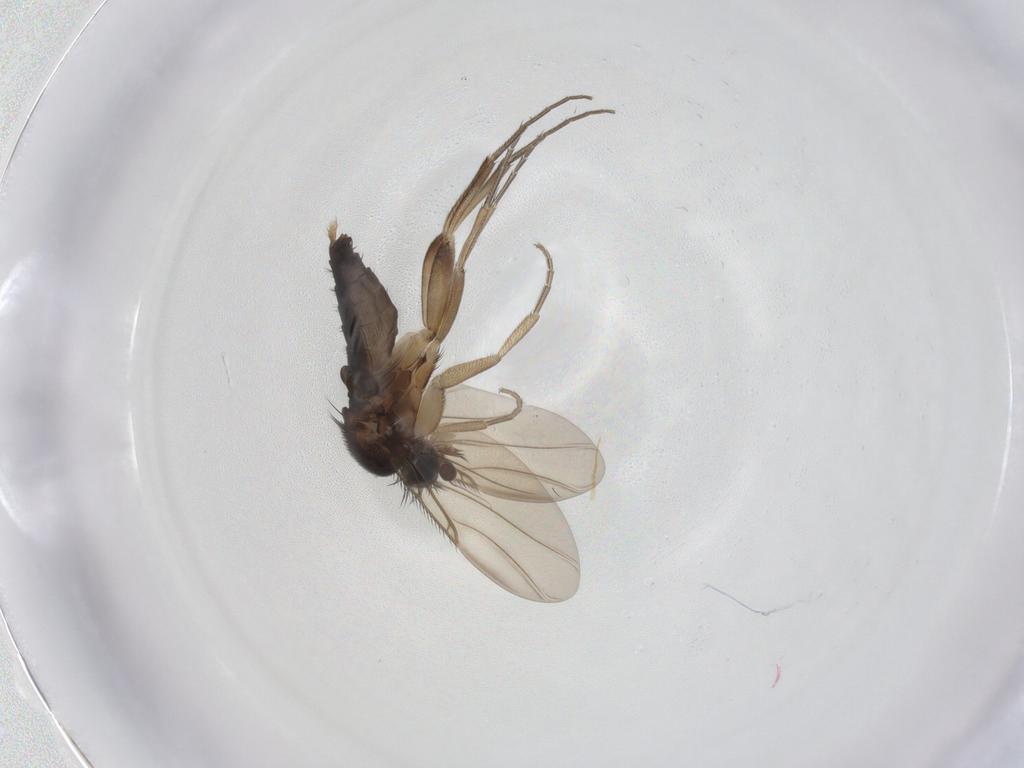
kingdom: Animalia
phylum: Arthropoda
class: Insecta
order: Diptera
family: Phoridae
